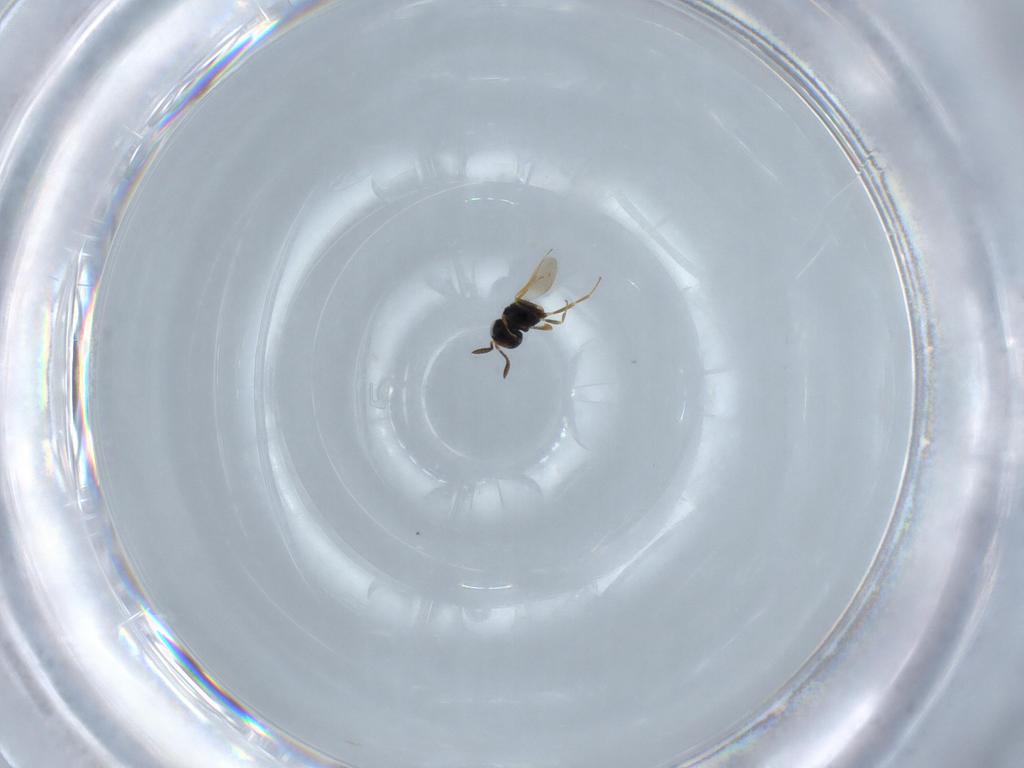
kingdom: Animalia
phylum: Arthropoda
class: Insecta
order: Hymenoptera
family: Scelionidae
